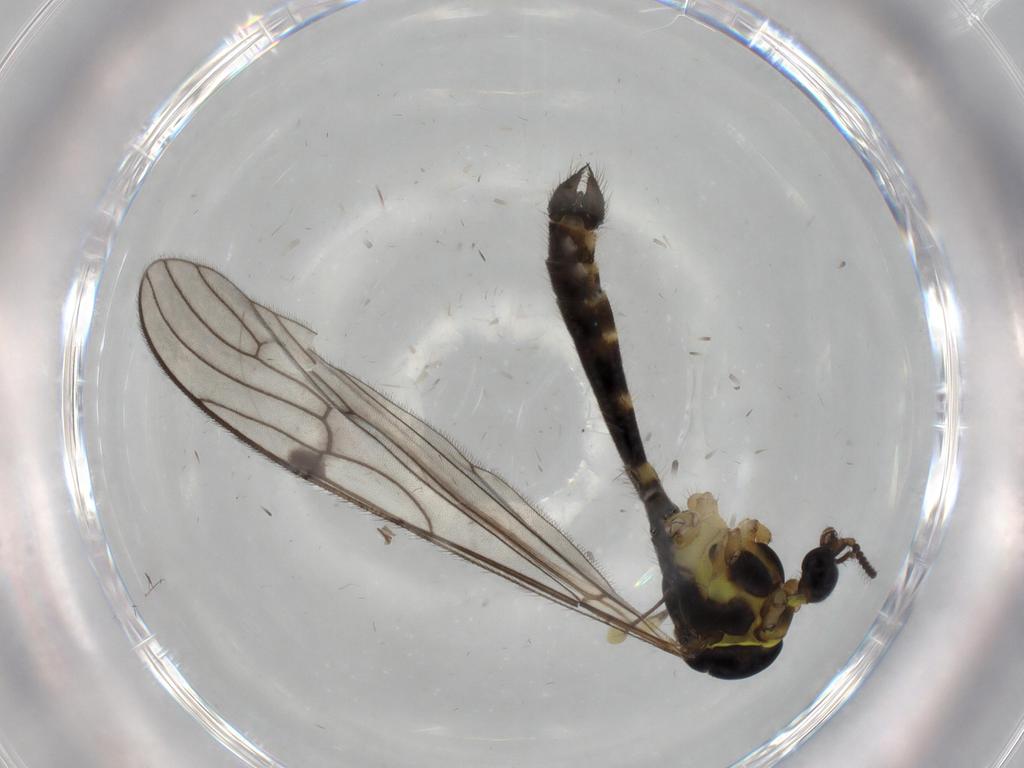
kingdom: Animalia
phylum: Arthropoda
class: Insecta
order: Diptera
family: Limoniidae
